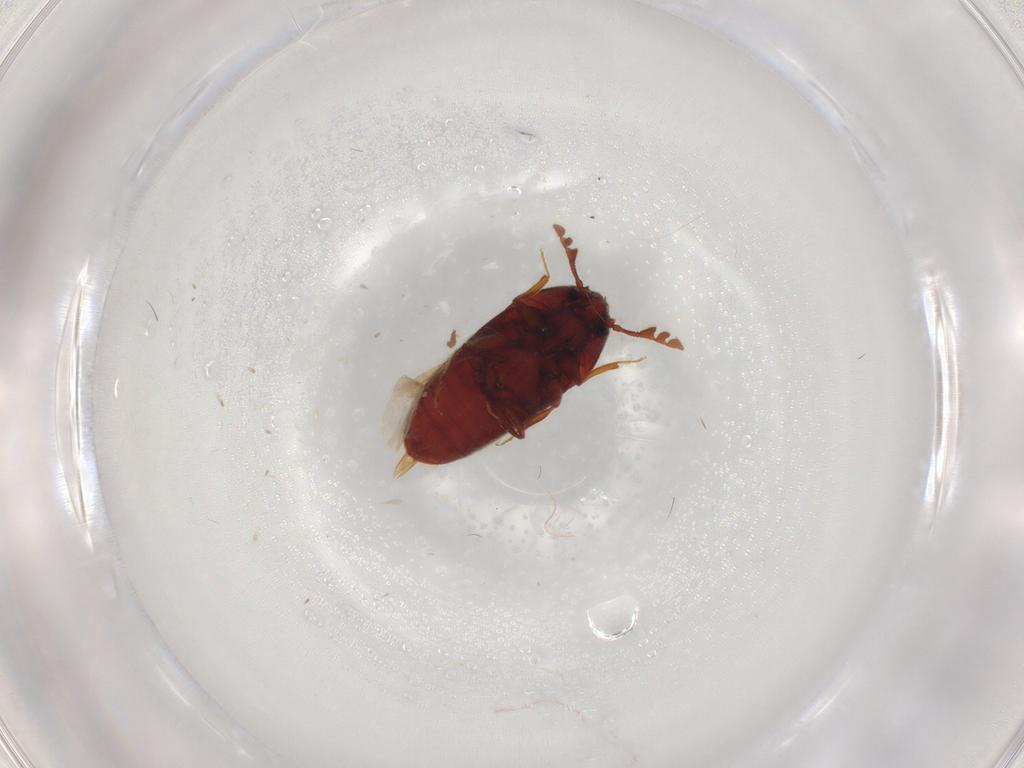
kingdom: Animalia
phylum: Arthropoda
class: Insecta
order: Coleoptera
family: Throscidae
